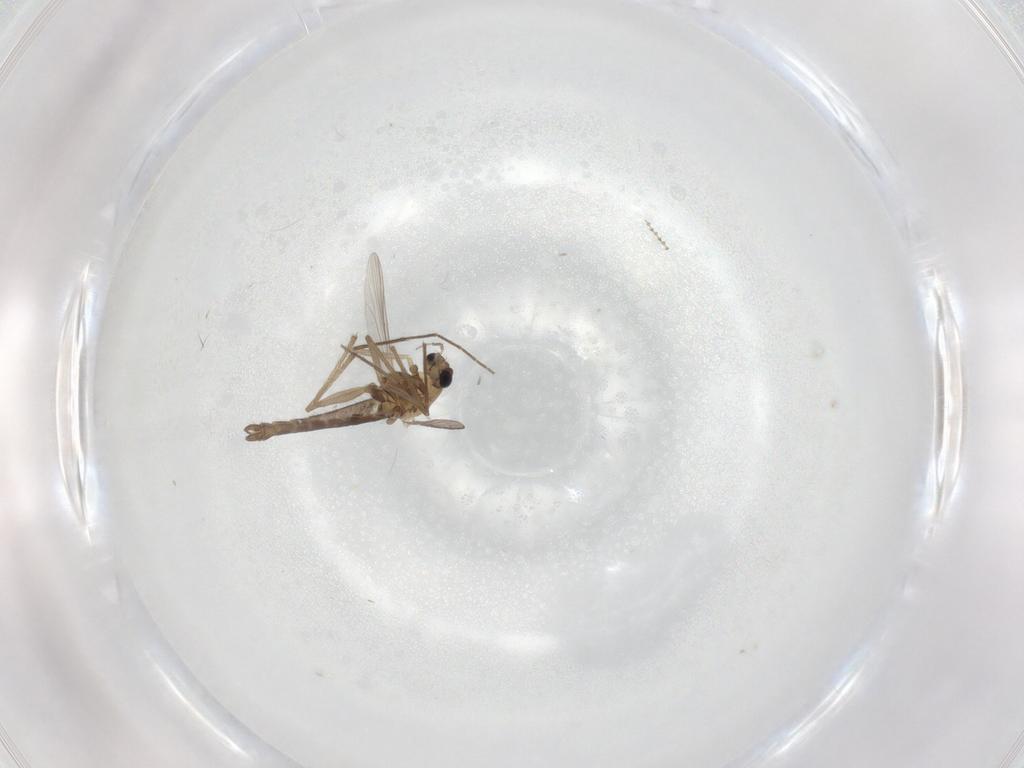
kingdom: Animalia
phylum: Arthropoda
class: Insecta
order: Diptera
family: Chironomidae
